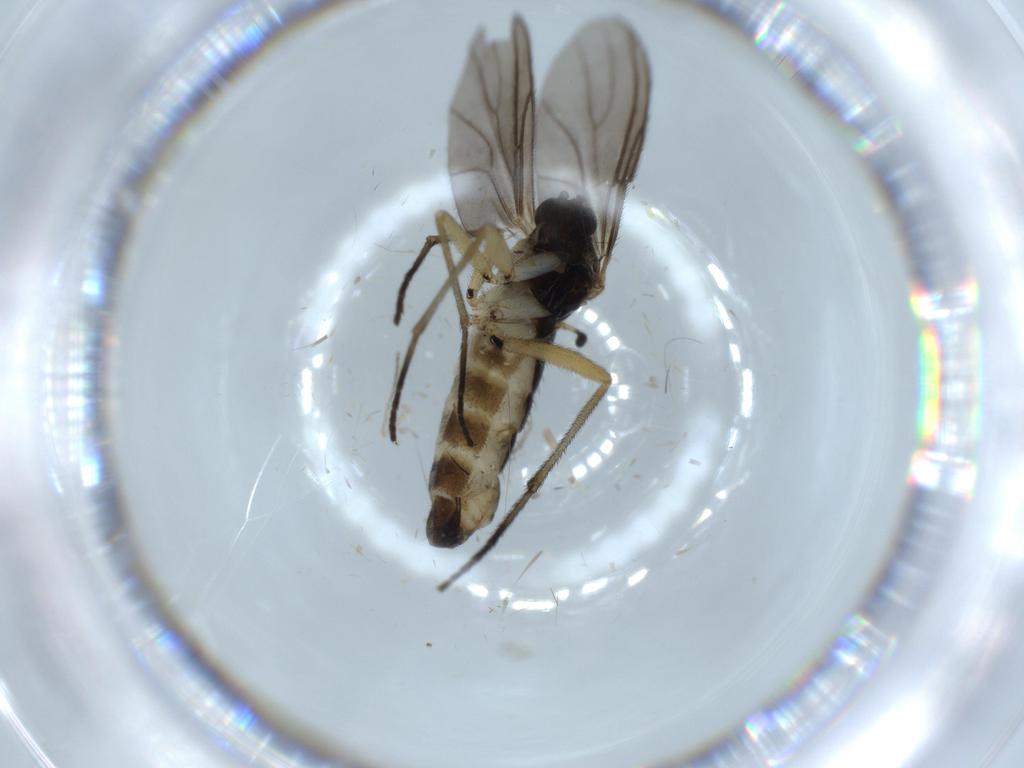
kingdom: Animalia
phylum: Arthropoda
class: Insecta
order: Diptera
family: Sciaridae
